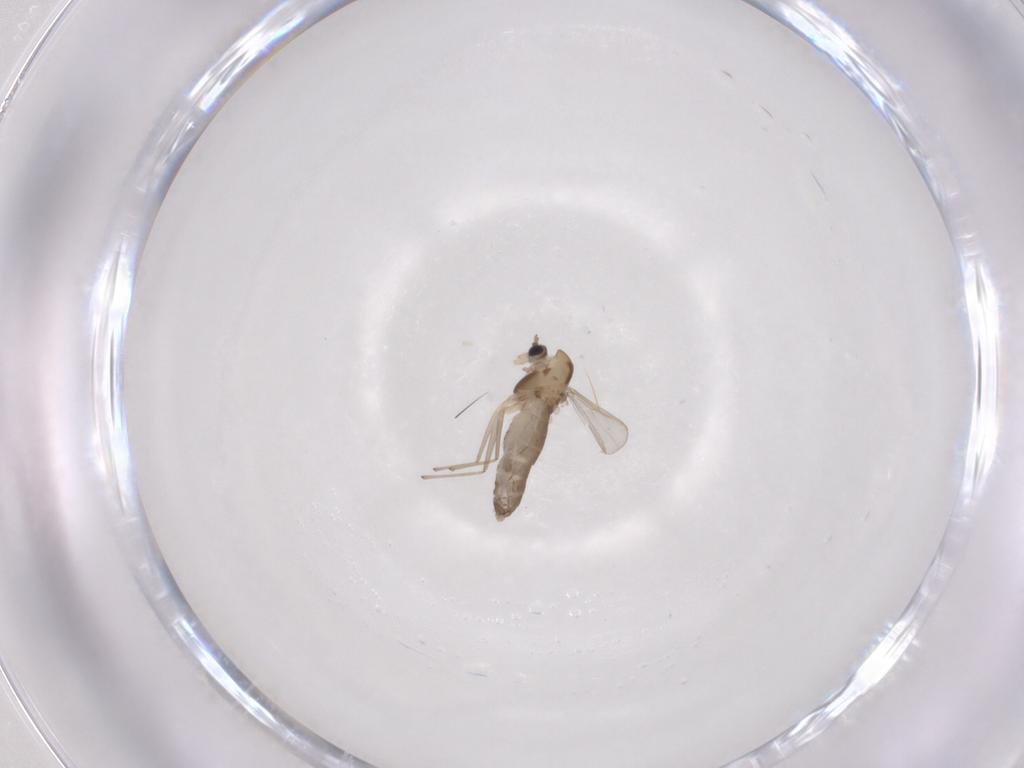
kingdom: Animalia
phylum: Arthropoda
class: Insecta
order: Diptera
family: Chironomidae
